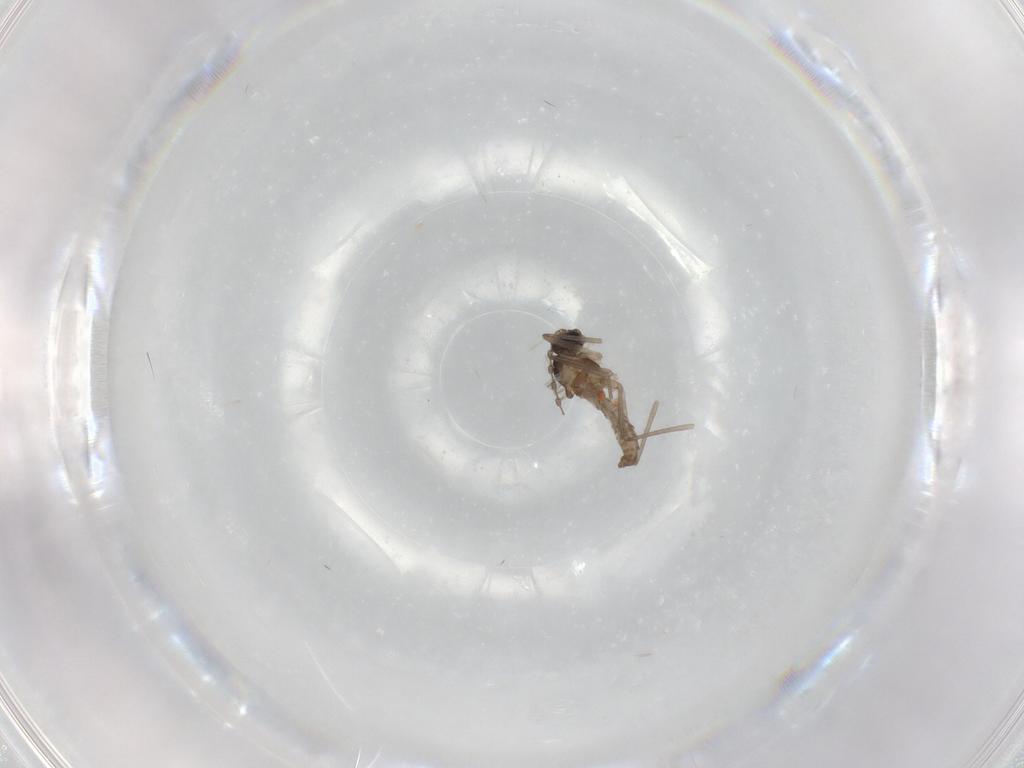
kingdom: Animalia
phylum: Arthropoda
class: Insecta
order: Diptera
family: Cecidomyiidae
